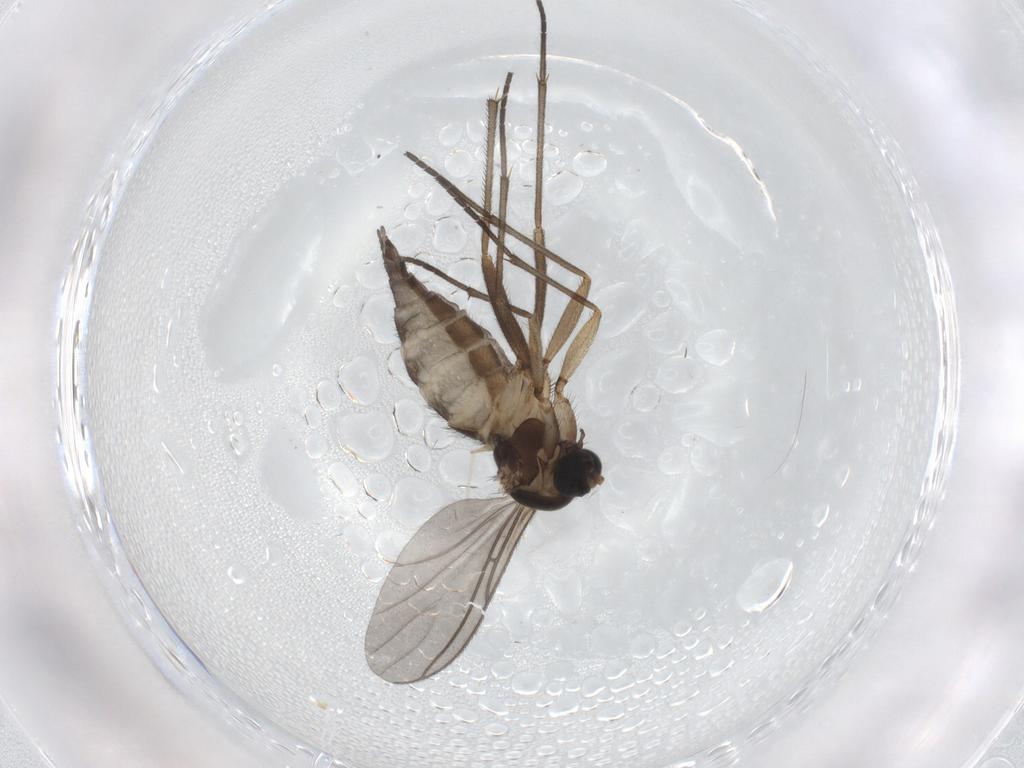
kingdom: Animalia
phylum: Arthropoda
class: Insecta
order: Diptera
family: Sciaridae
